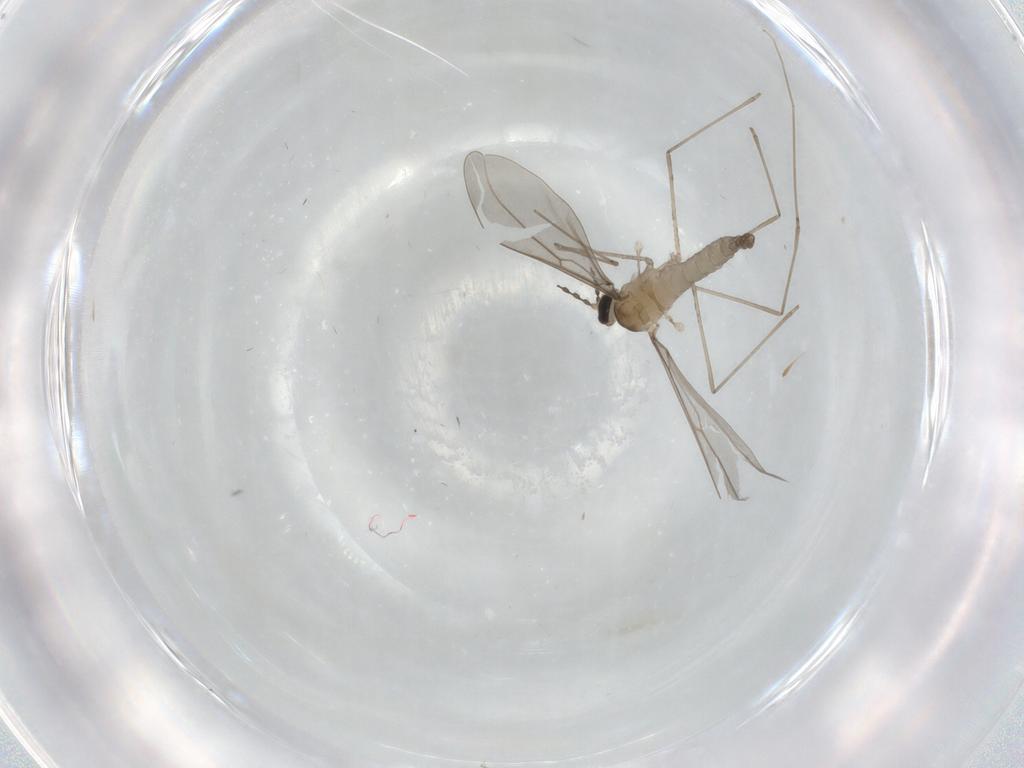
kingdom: Animalia
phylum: Arthropoda
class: Insecta
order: Diptera
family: Cecidomyiidae
